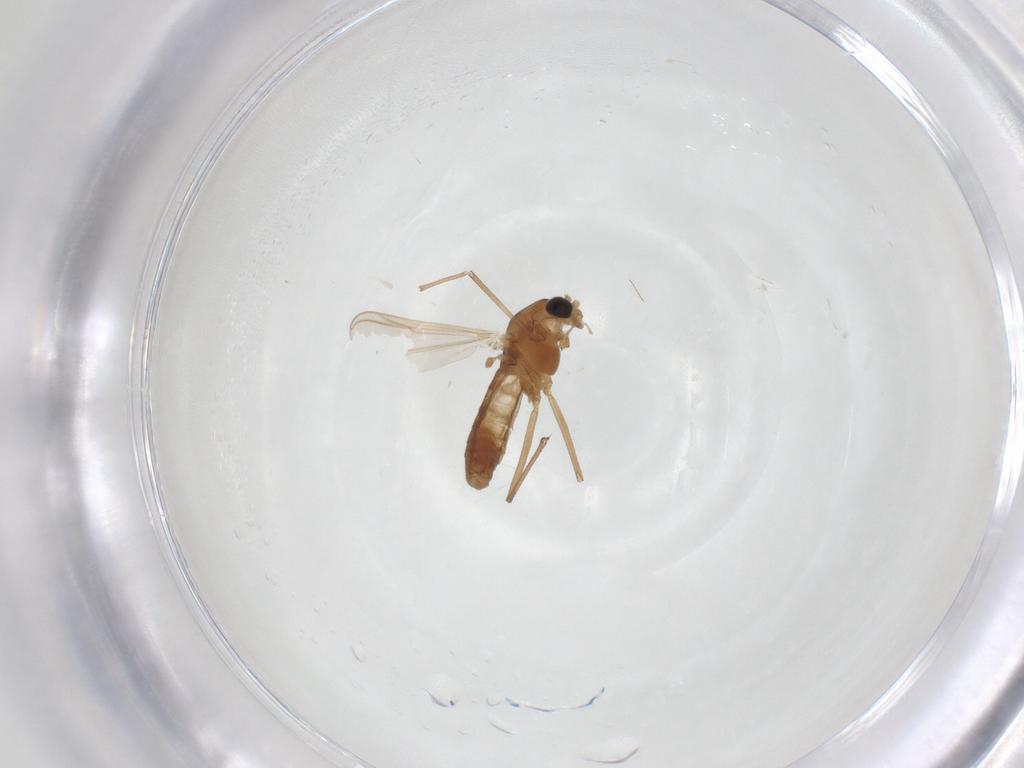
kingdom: Animalia
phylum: Arthropoda
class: Insecta
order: Diptera
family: Chironomidae
